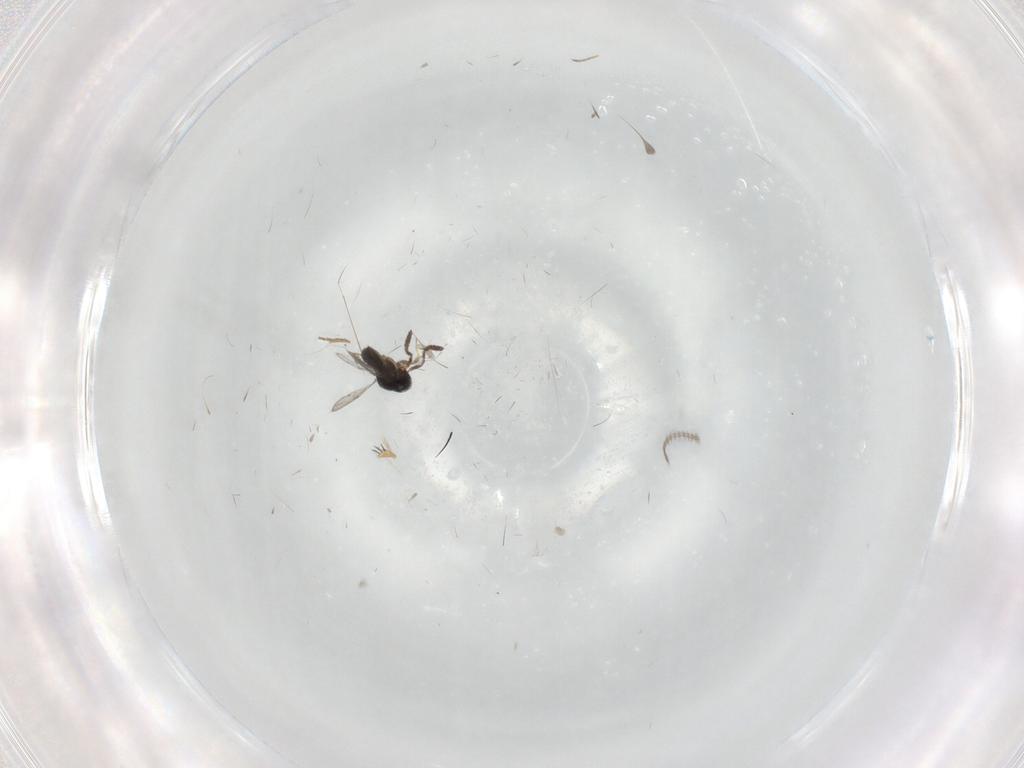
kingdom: Animalia
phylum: Arthropoda
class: Insecta
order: Hymenoptera
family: Scelionidae
